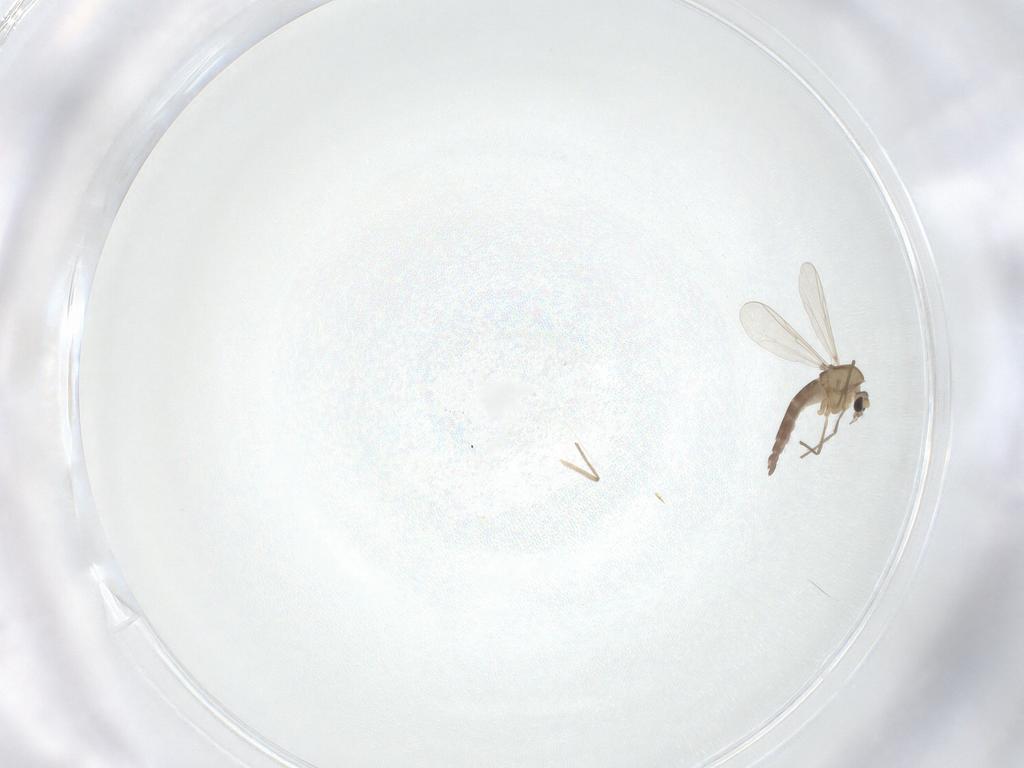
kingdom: Animalia
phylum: Arthropoda
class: Insecta
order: Diptera
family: Chironomidae
